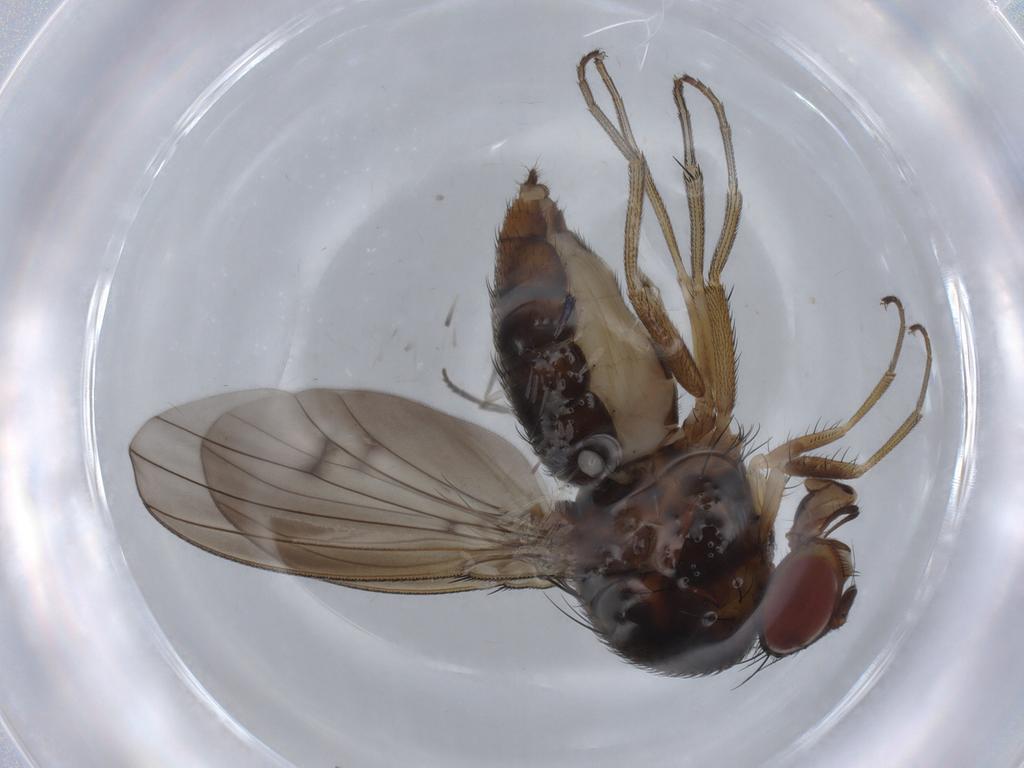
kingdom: Animalia
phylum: Arthropoda
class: Insecta
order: Diptera
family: Curtonotidae
